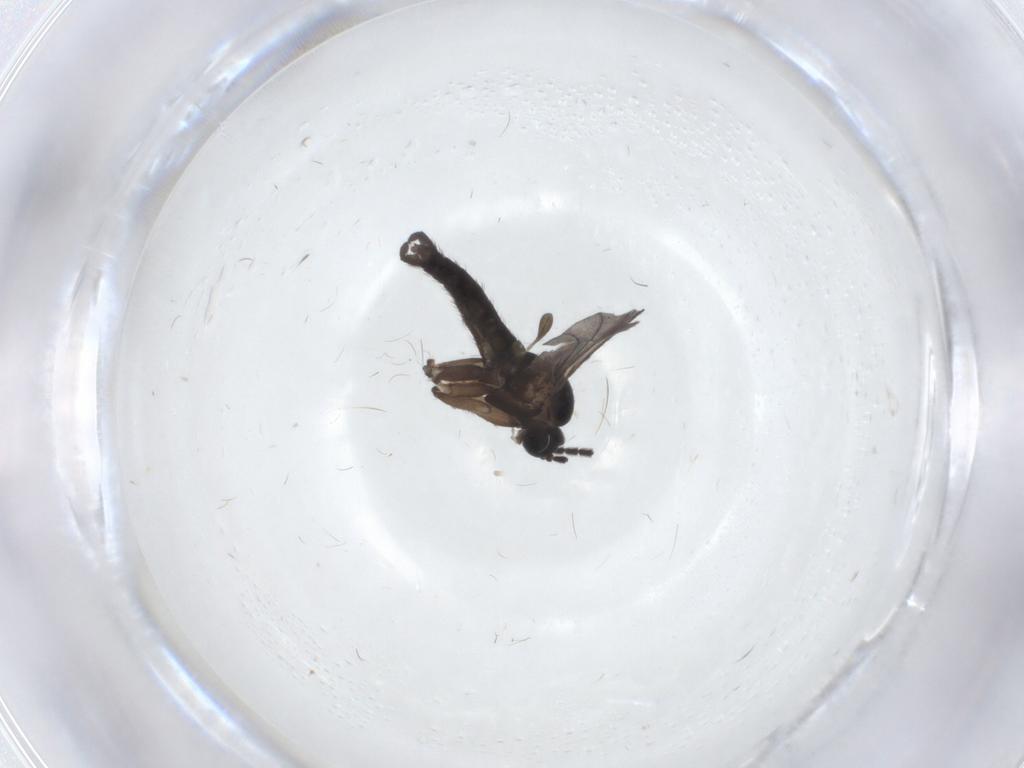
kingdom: Animalia
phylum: Arthropoda
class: Insecta
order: Diptera
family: Sciaridae
